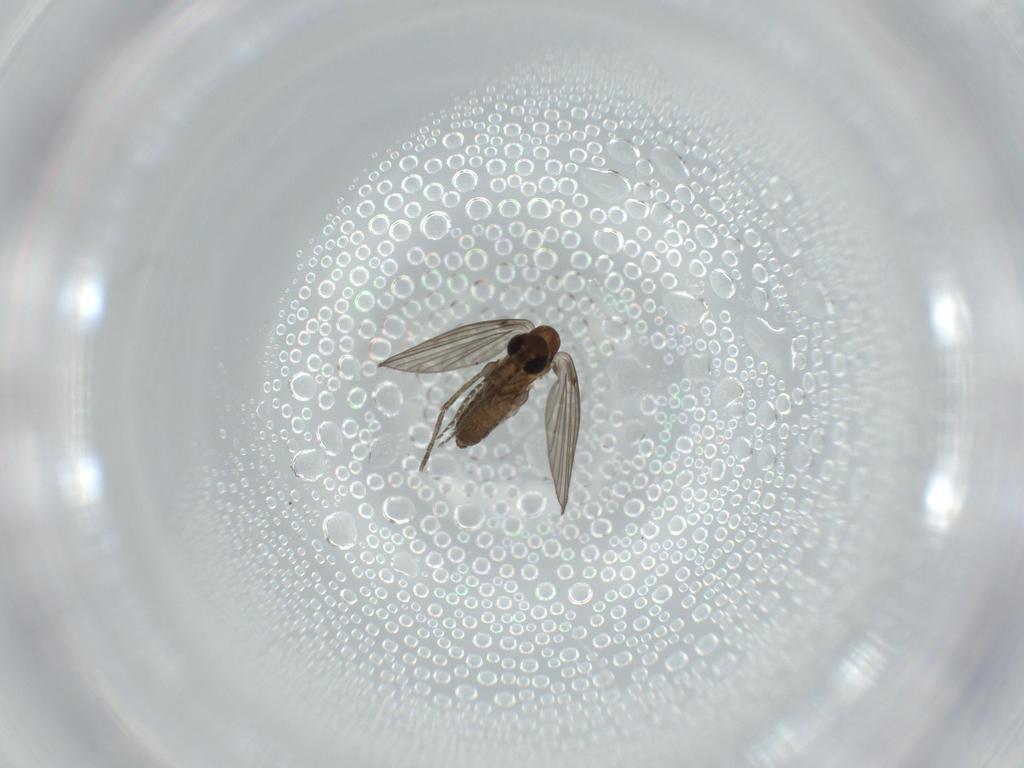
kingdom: Animalia
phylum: Arthropoda
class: Insecta
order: Diptera
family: Psychodidae
